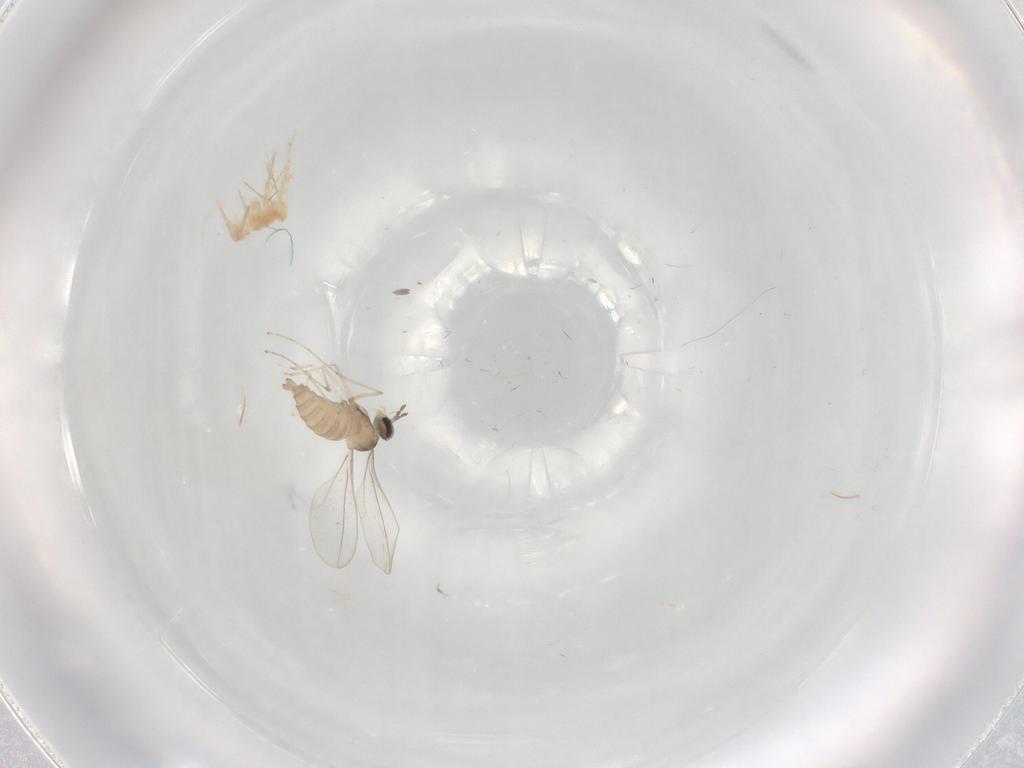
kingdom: Animalia
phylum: Arthropoda
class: Insecta
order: Diptera
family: Cecidomyiidae
